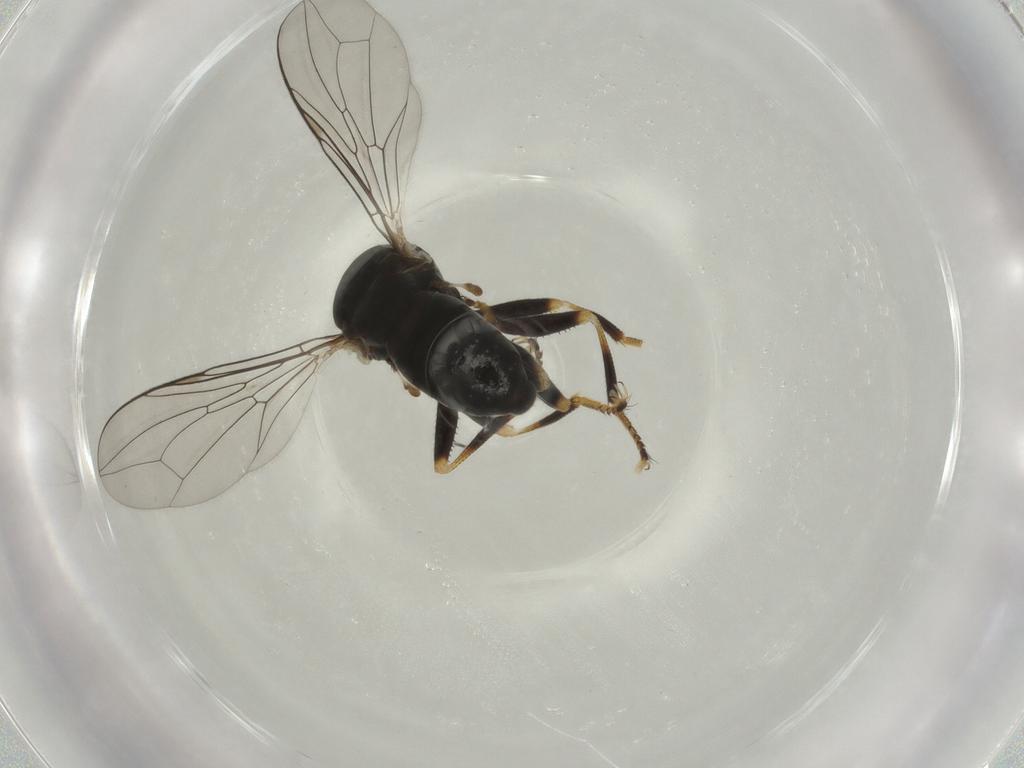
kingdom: Animalia
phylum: Arthropoda
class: Insecta
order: Diptera
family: Pipunculidae
